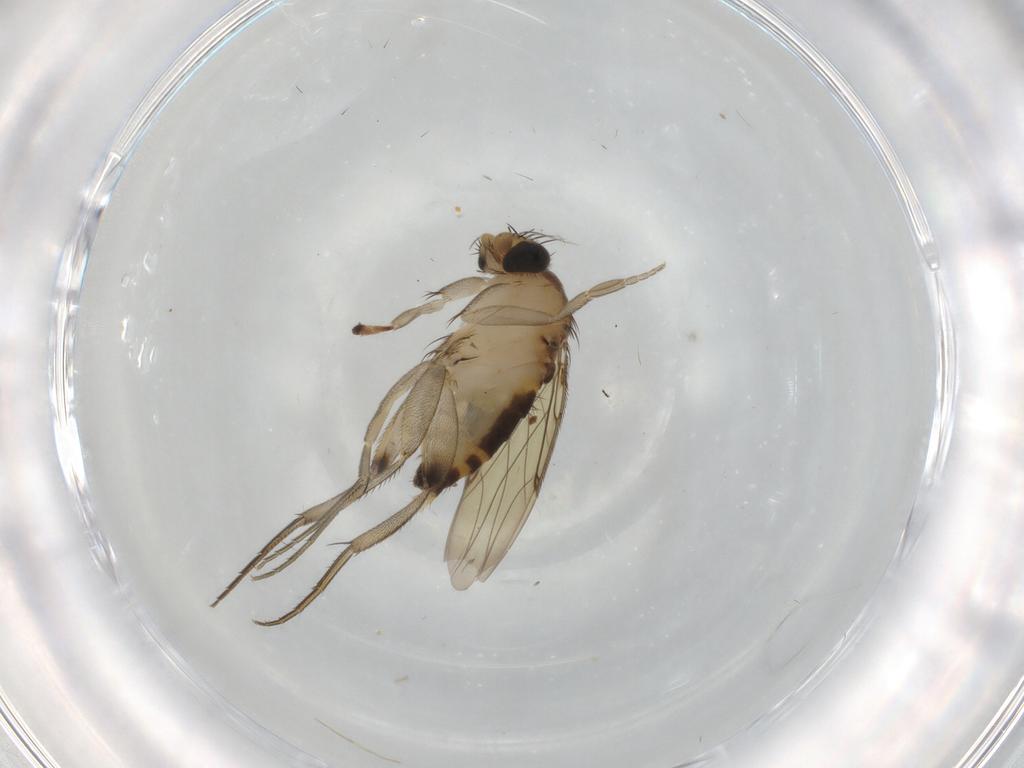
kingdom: Animalia
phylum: Arthropoda
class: Insecta
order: Diptera
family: Phoridae
